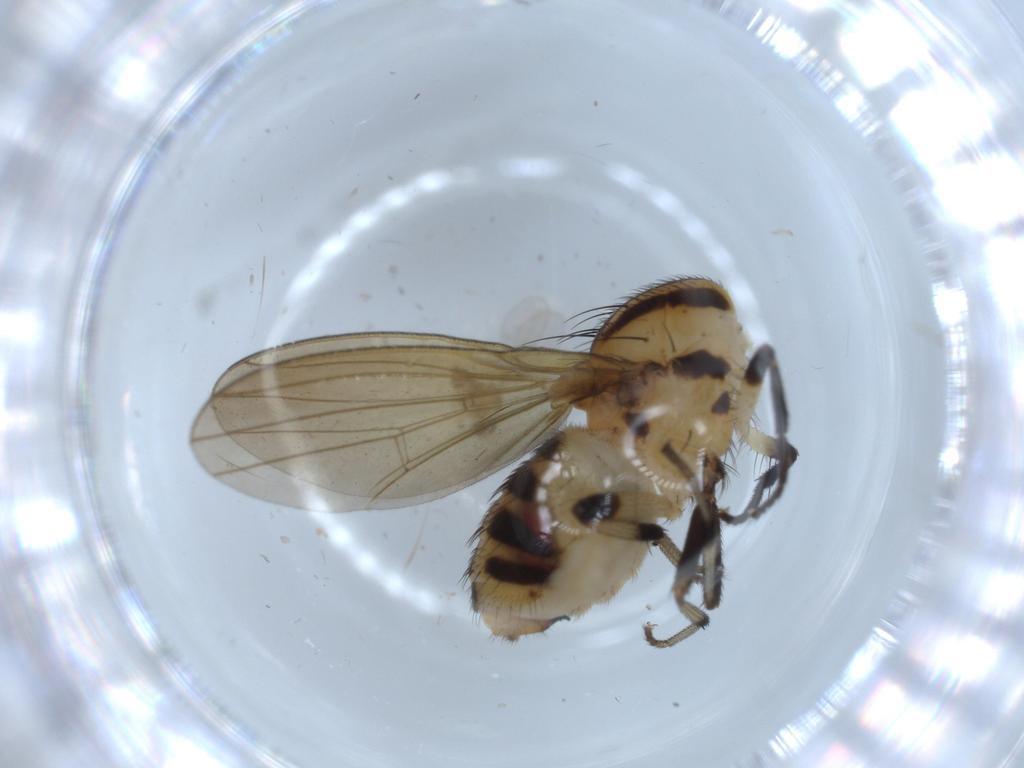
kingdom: Animalia
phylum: Arthropoda
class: Insecta
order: Diptera
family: Lauxaniidae
